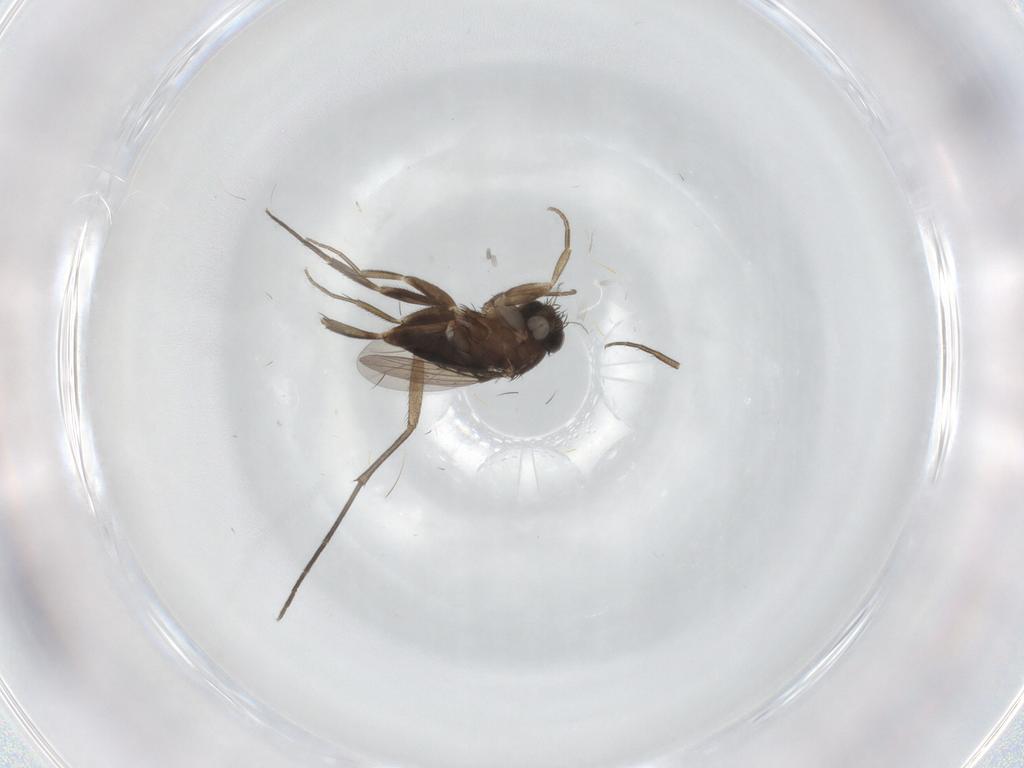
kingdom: Animalia
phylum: Arthropoda
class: Insecta
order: Diptera
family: Phoridae
